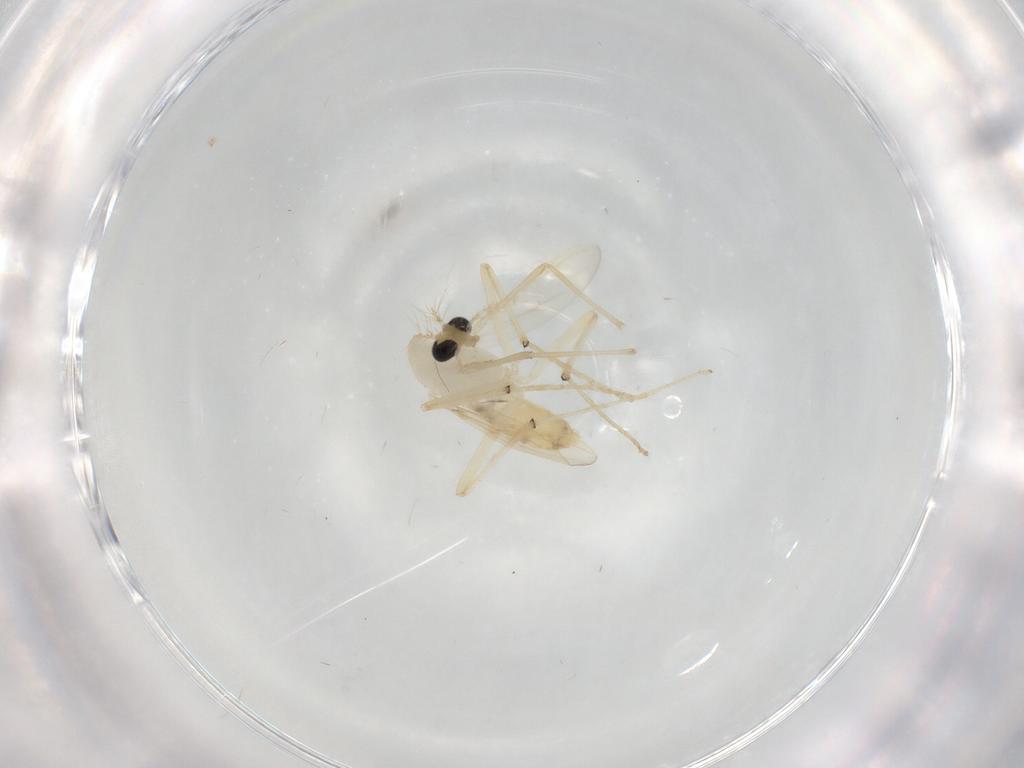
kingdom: Animalia
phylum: Arthropoda
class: Insecta
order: Diptera
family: Chironomidae
